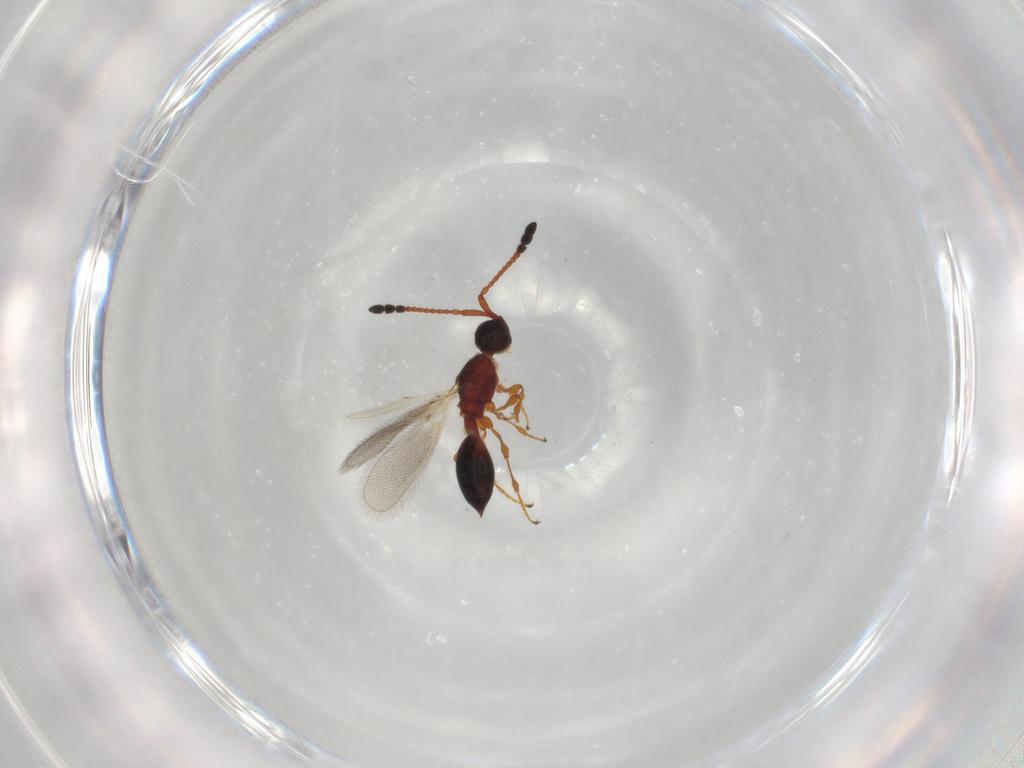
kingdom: Animalia
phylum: Arthropoda
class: Insecta
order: Hymenoptera
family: Diapriidae
